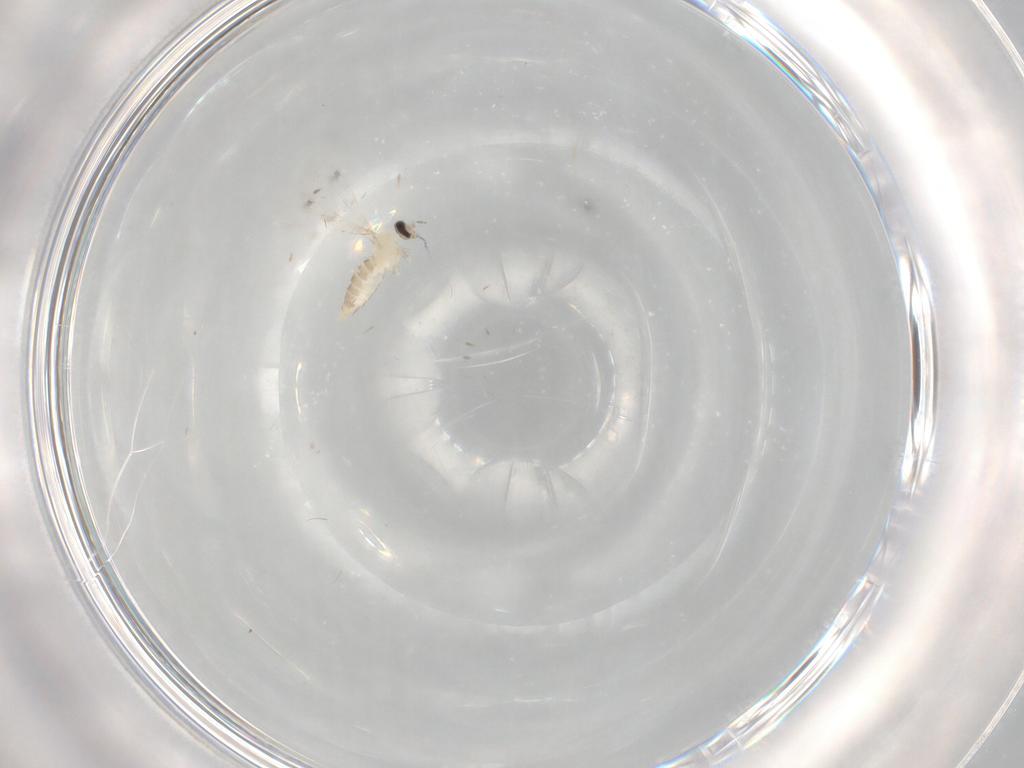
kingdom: Animalia
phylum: Arthropoda
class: Insecta
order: Diptera
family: Cecidomyiidae
